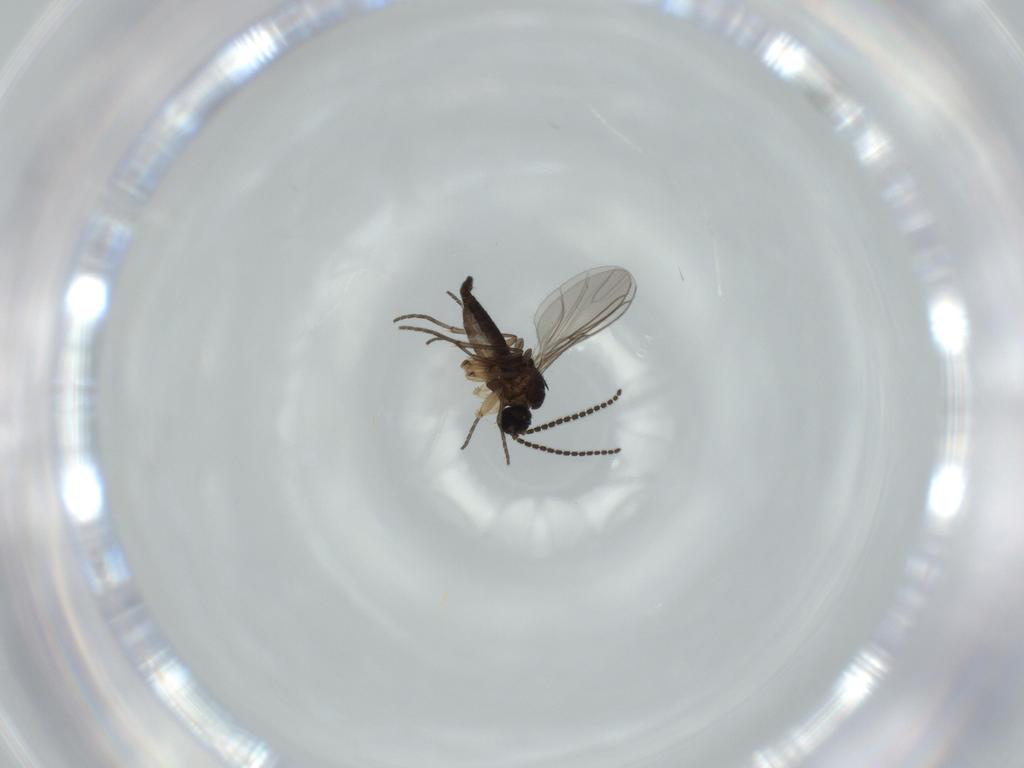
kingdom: Animalia
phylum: Arthropoda
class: Insecta
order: Diptera
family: Sciaridae
